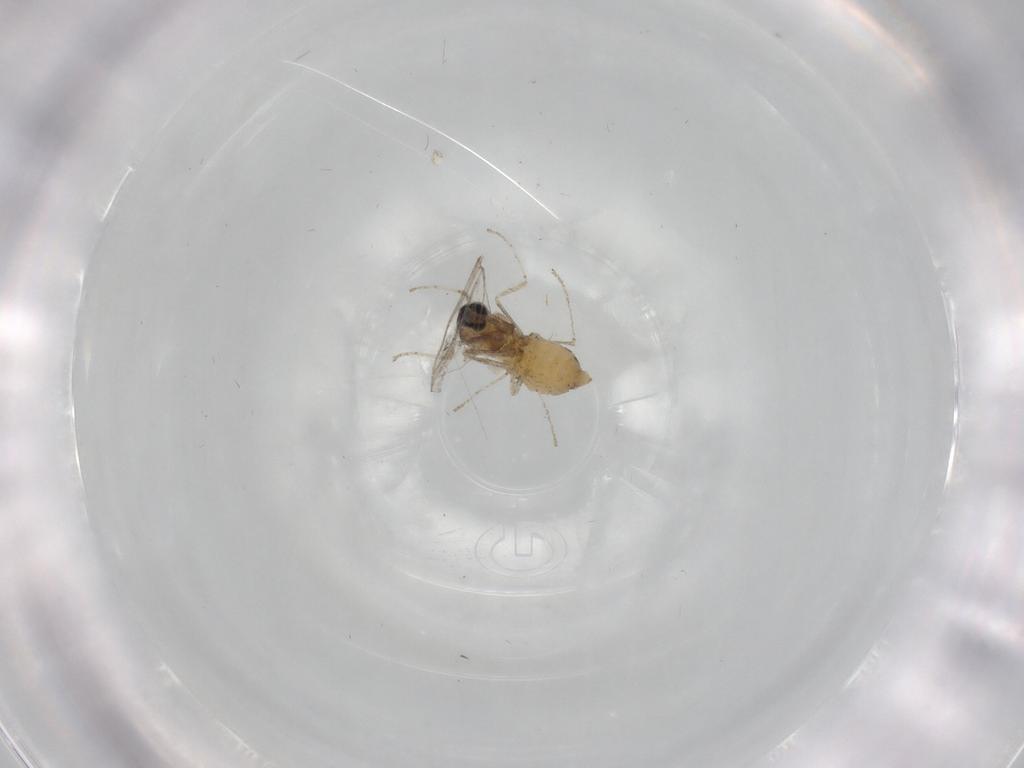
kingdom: Animalia
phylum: Arthropoda
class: Insecta
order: Diptera
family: Cecidomyiidae
